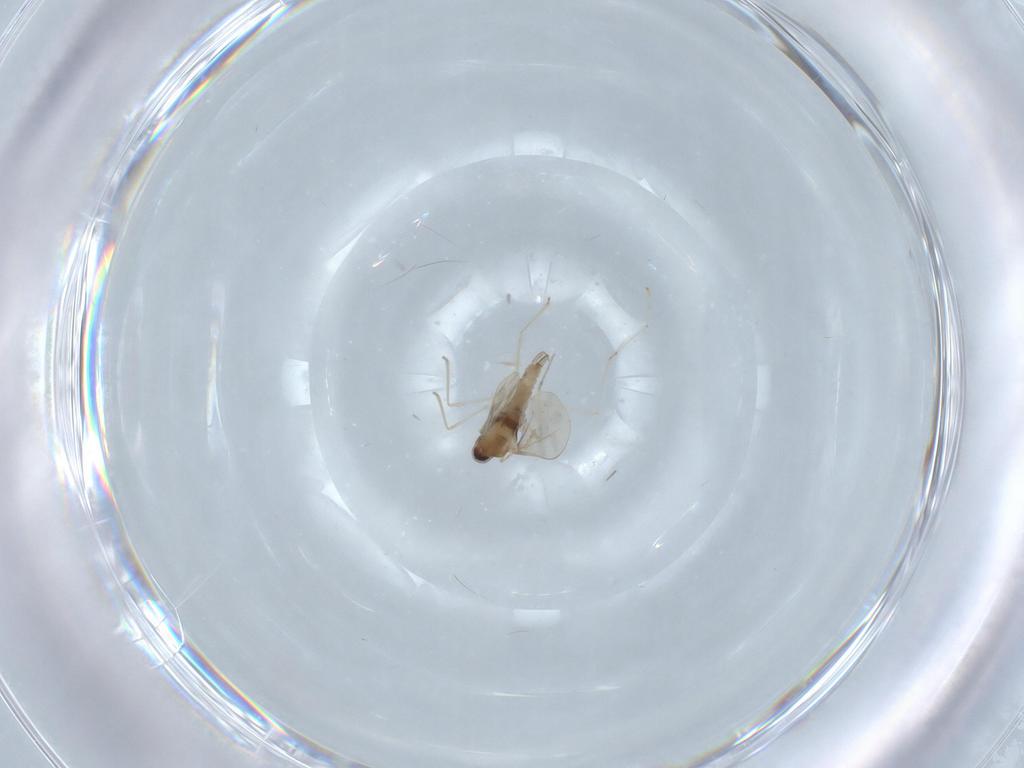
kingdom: Animalia
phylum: Arthropoda
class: Insecta
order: Diptera
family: Cecidomyiidae
